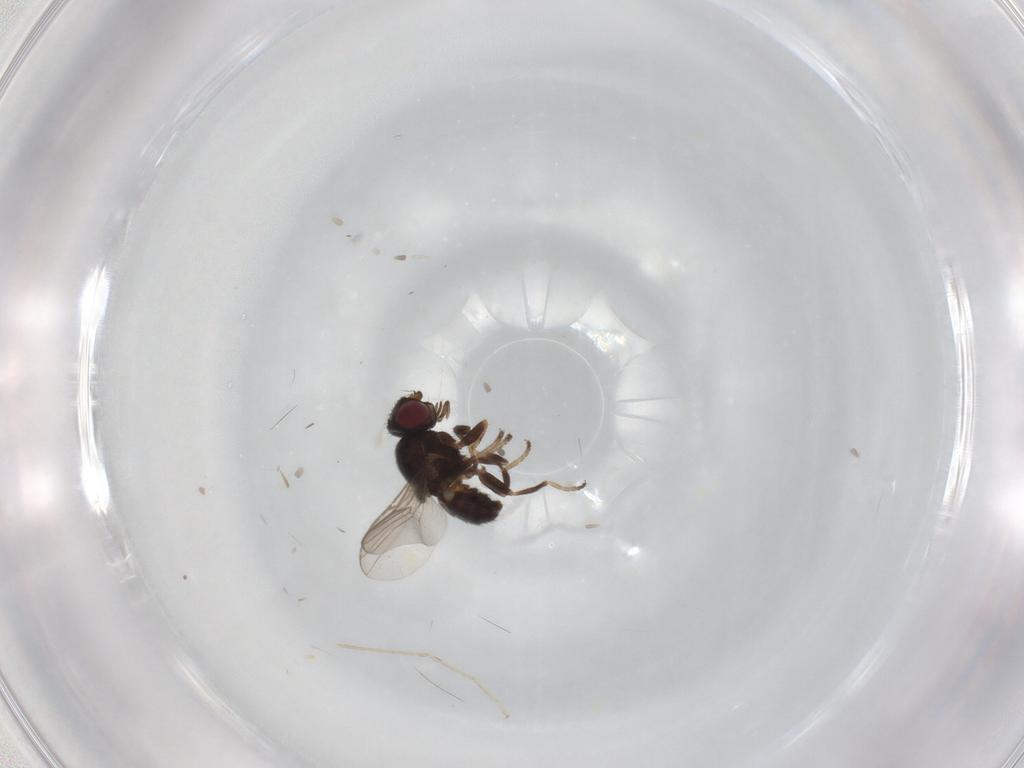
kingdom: Animalia
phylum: Arthropoda
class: Insecta
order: Diptera
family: Chloropidae
